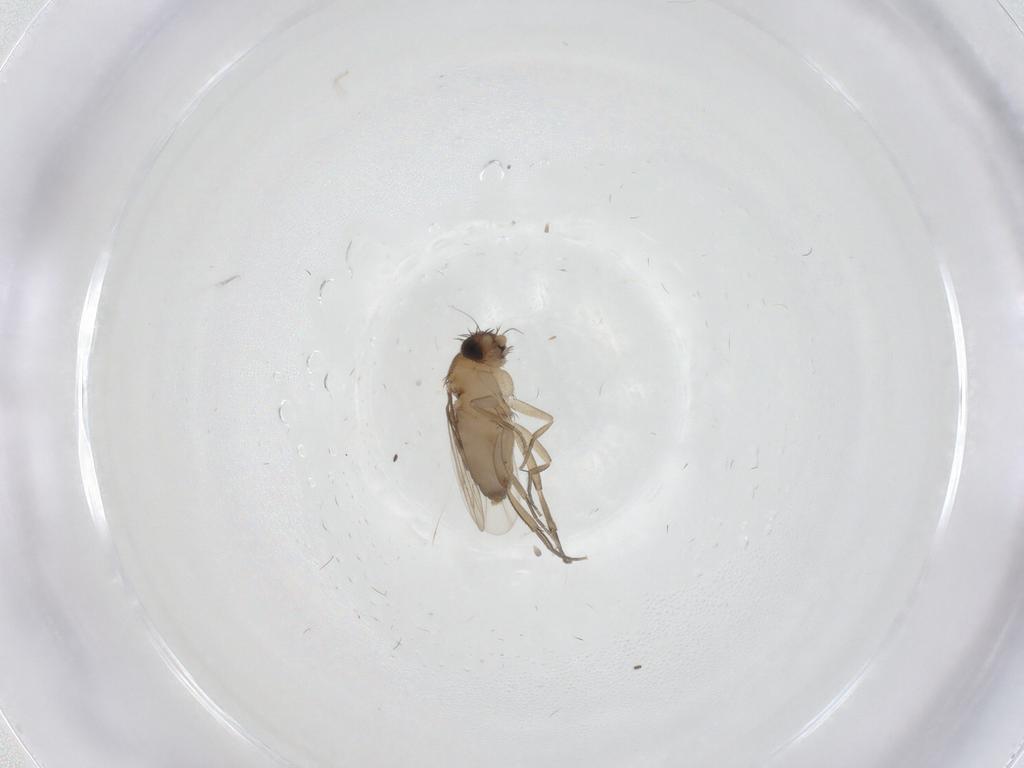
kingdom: Animalia
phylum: Arthropoda
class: Insecta
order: Diptera
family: Phoridae
